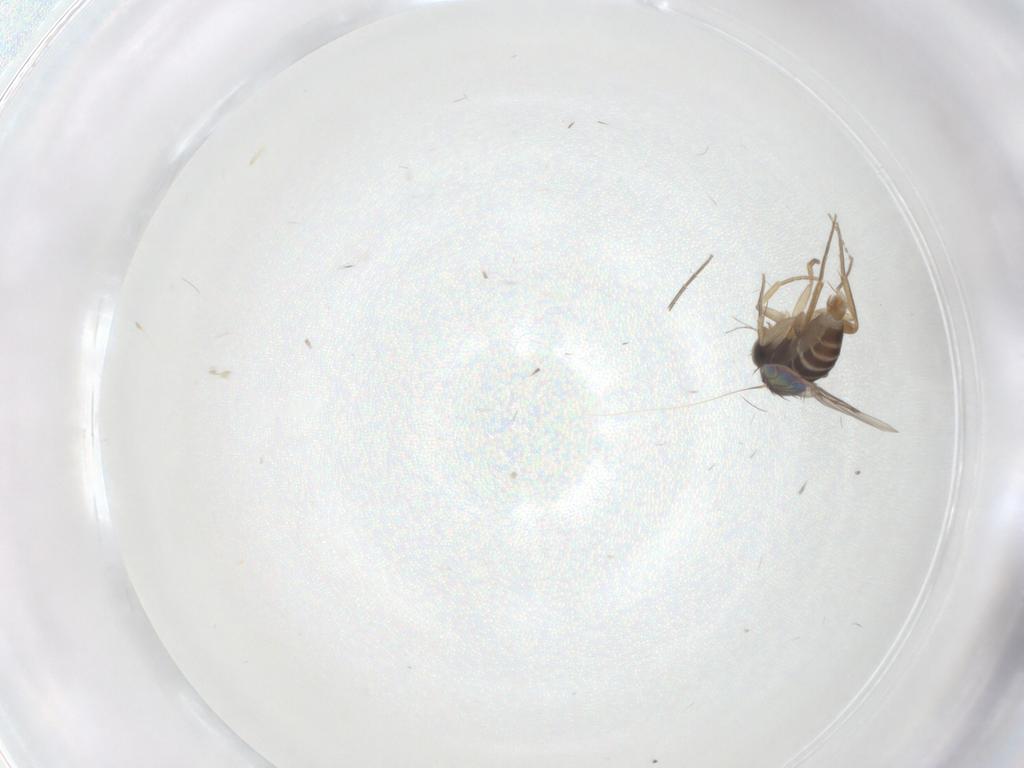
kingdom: Animalia
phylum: Arthropoda
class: Insecta
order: Diptera
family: Phoridae
